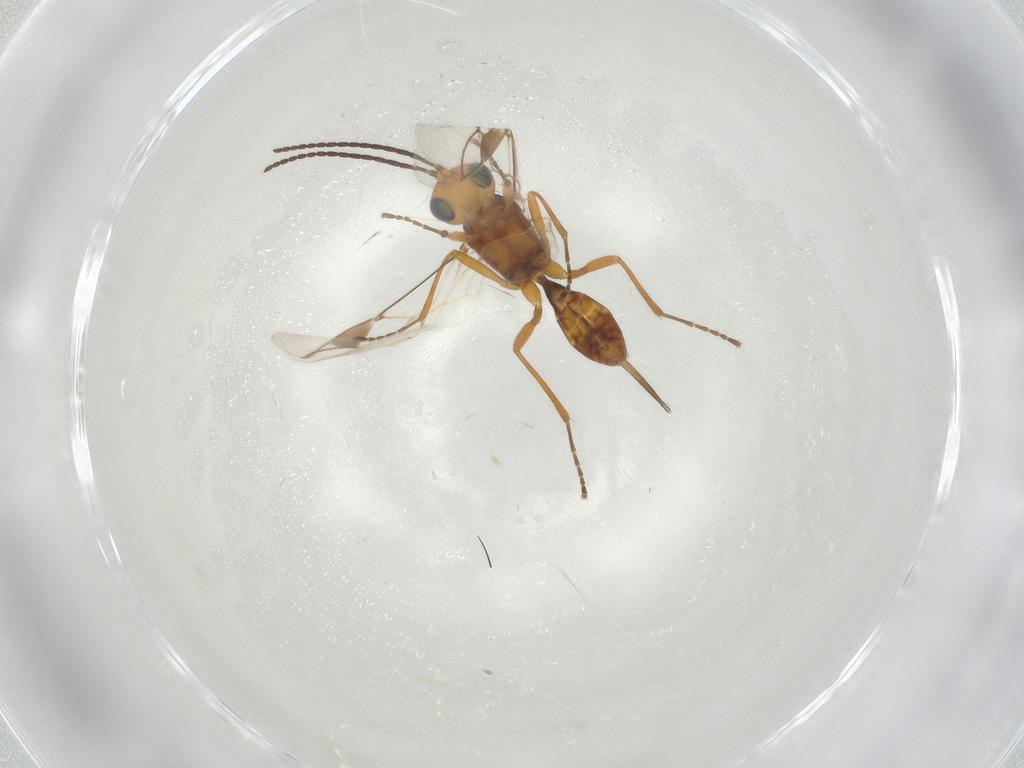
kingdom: Animalia
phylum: Arthropoda
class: Insecta
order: Hymenoptera
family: Braconidae
